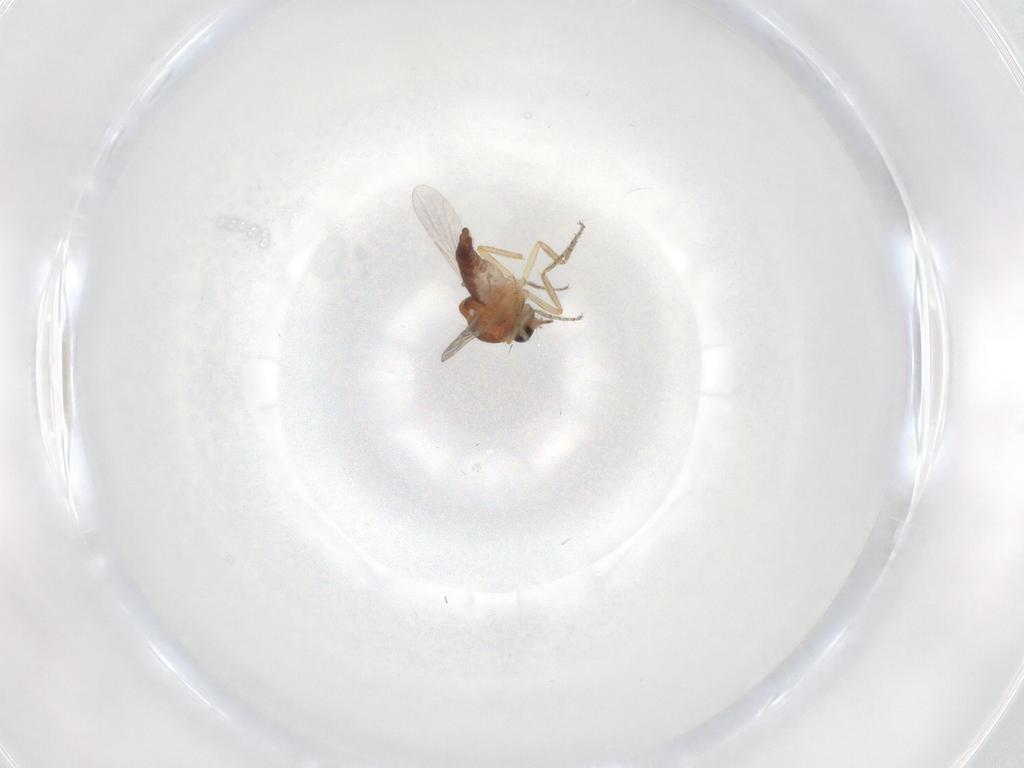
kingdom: Animalia
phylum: Arthropoda
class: Insecta
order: Diptera
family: Ceratopogonidae
